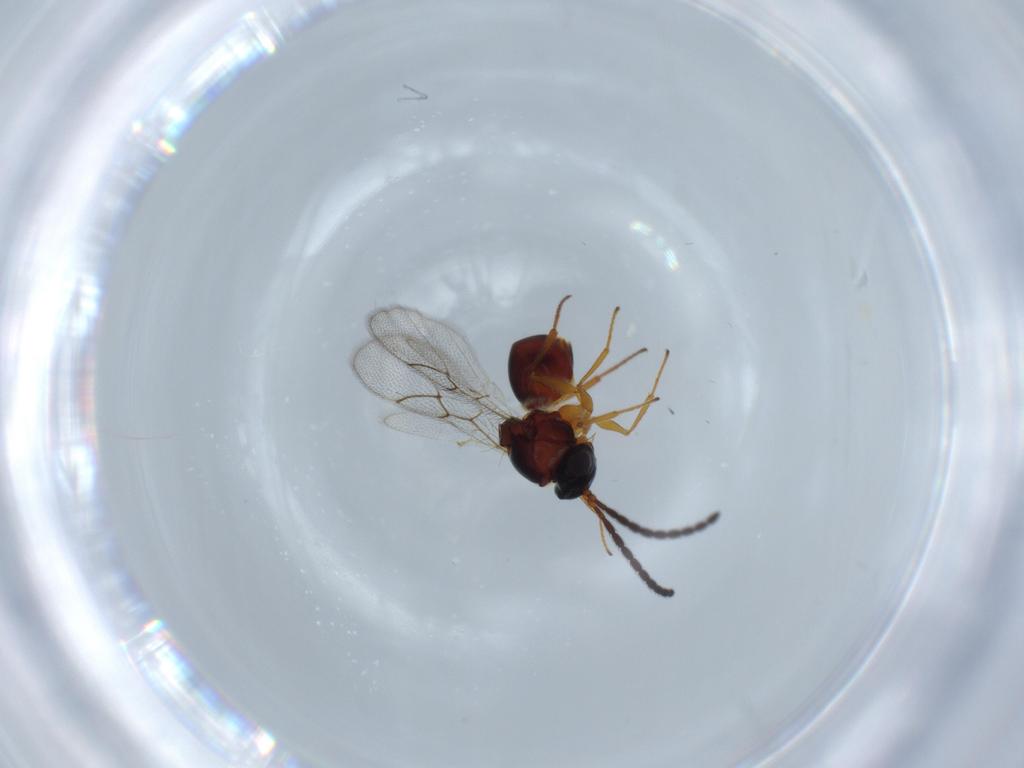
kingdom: Animalia
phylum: Arthropoda
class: Insecta
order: Hymenoptera
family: Figitidae
